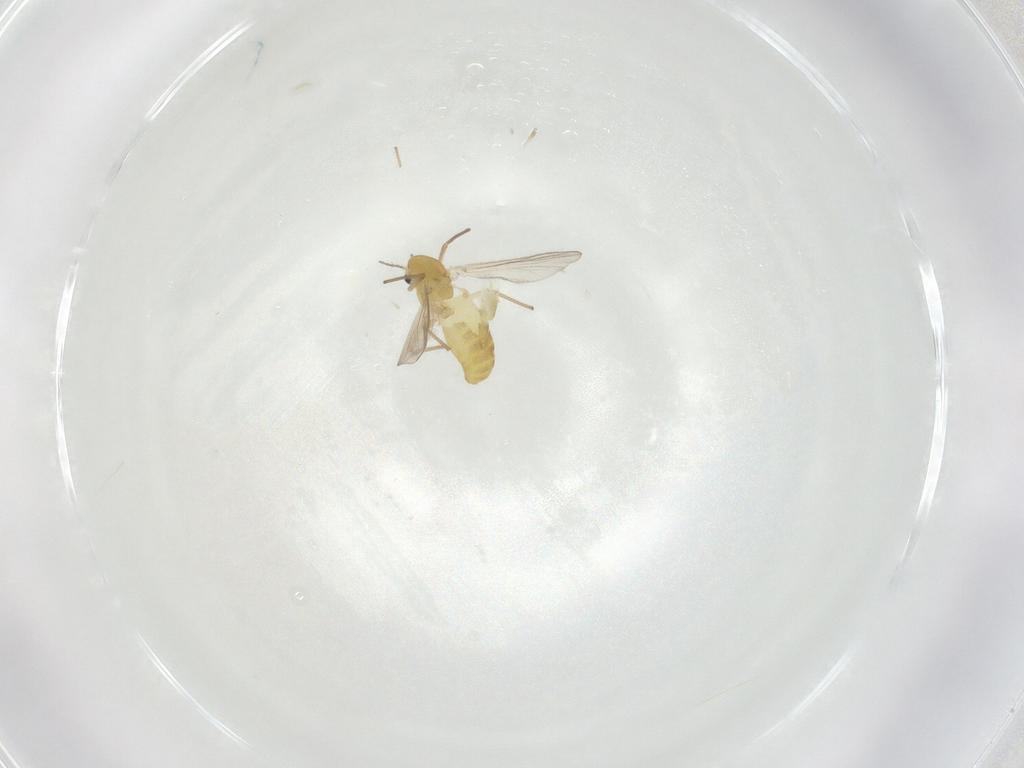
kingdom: Animalia
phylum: Arthropoda
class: Insecta
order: Diptera
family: Chironomidae
